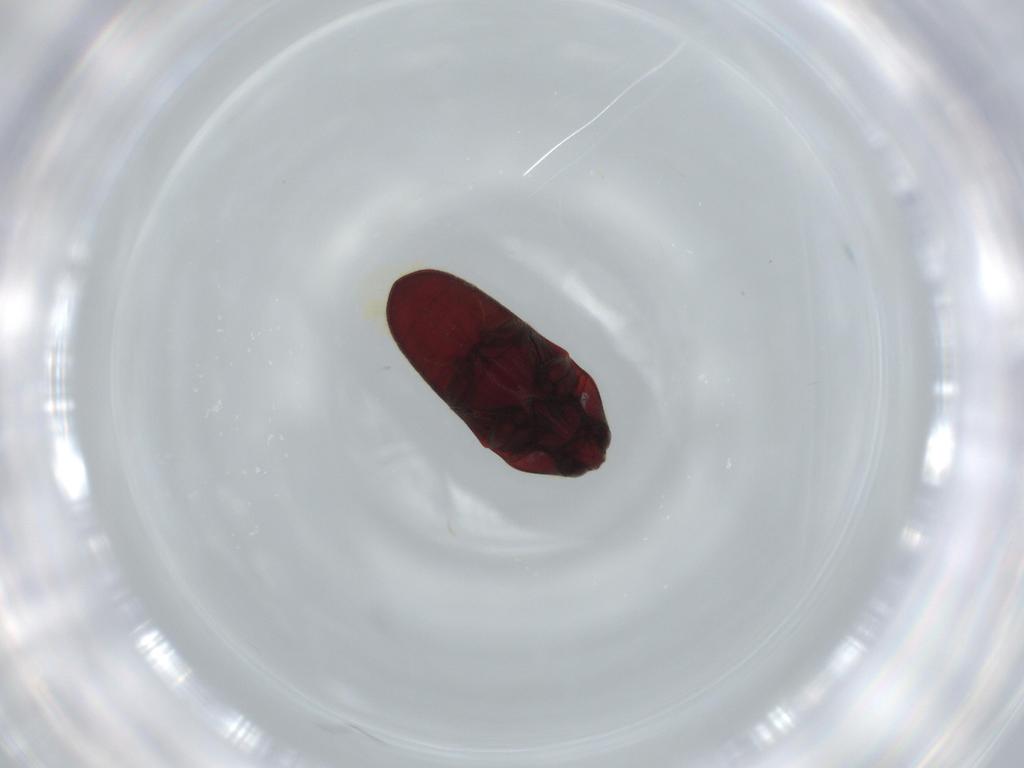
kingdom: Animalia
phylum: Arthropoda
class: Insecta
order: Coleoptera
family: Throscidae
